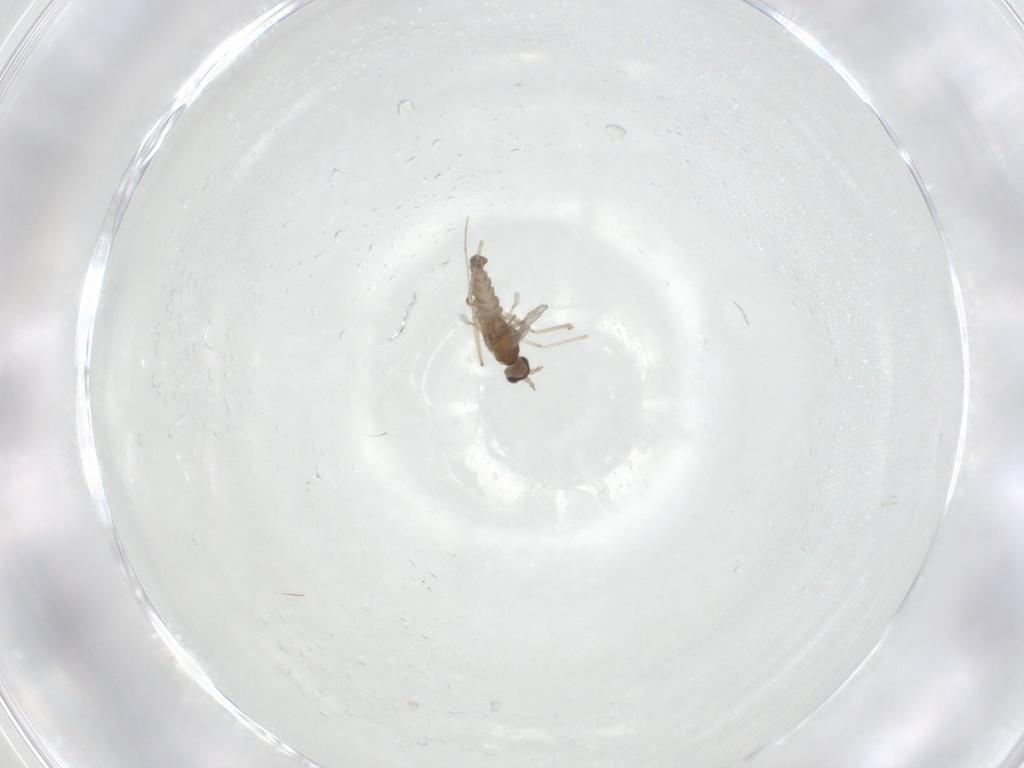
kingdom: Animalia
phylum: Arthropoda
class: Insecta
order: Diptera
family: Cecidomyiidae
